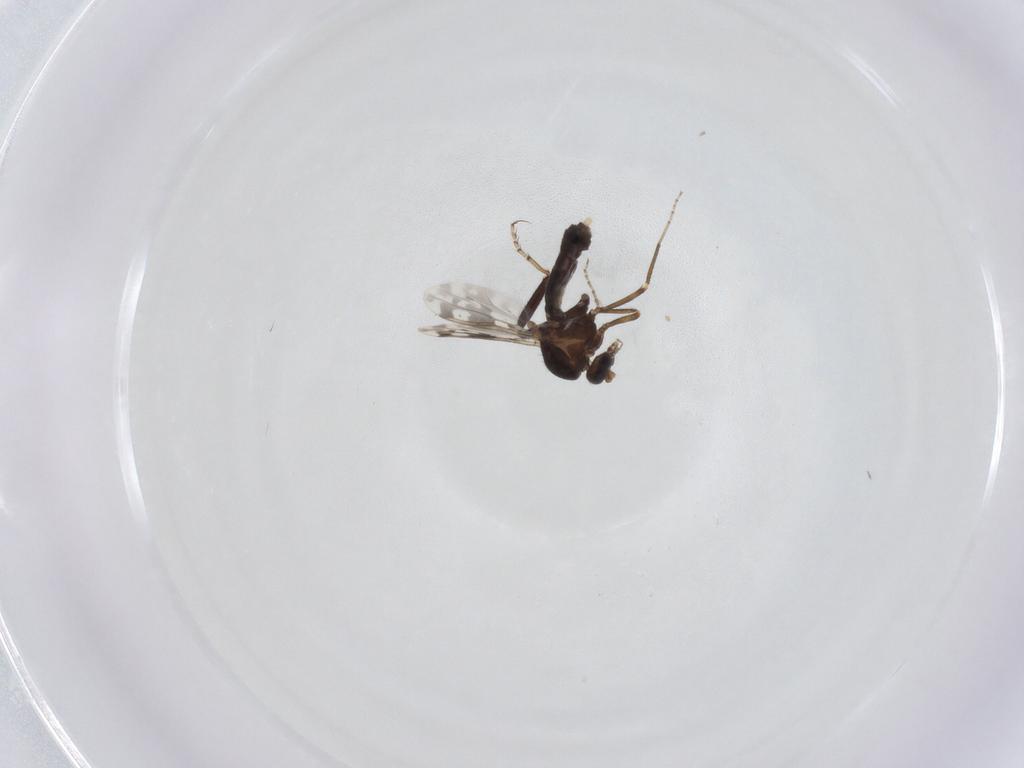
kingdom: Animalia
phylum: Arthropoda
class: Insecta
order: Diptera
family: Ceratopogonidae
